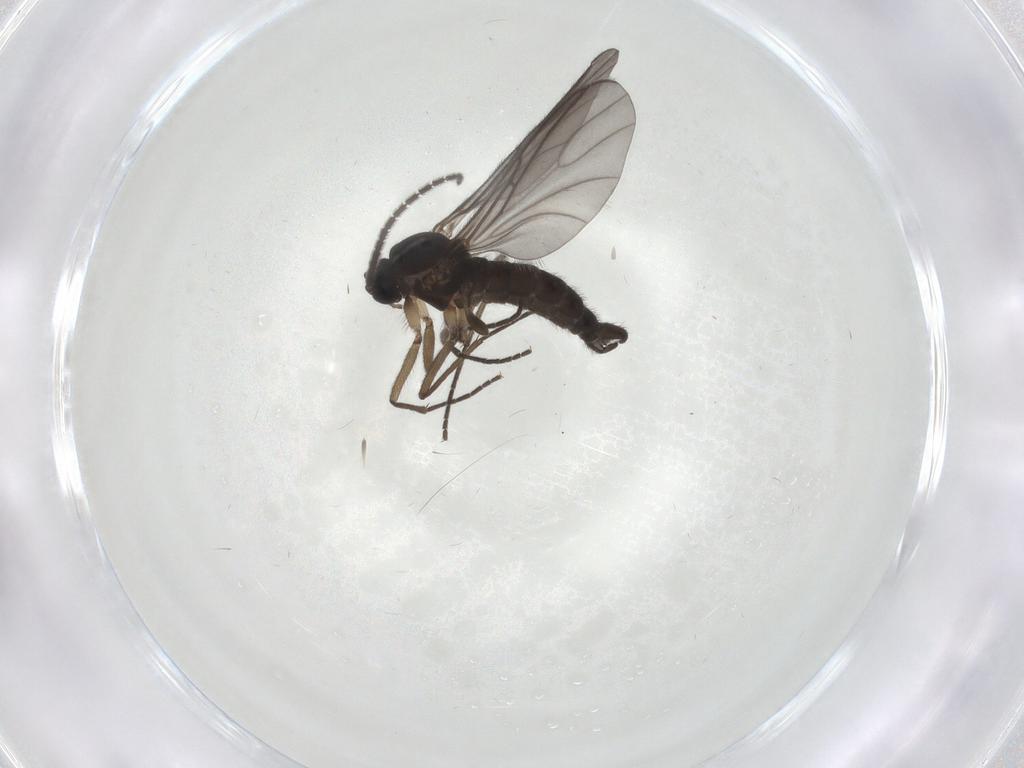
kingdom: Animalia
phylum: Arthropoda
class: Insecta
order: Diptera
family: Sciaridae
